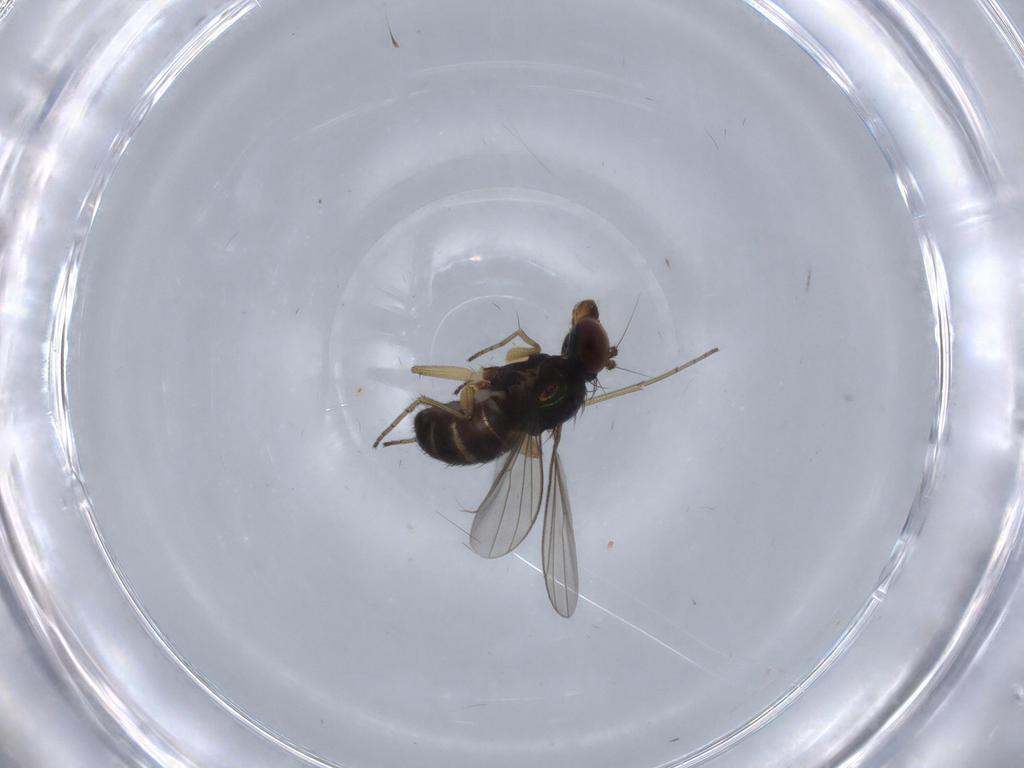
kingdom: Animalia
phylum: Arthropoda
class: Insecta
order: Diptera
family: Dolichopodidae
